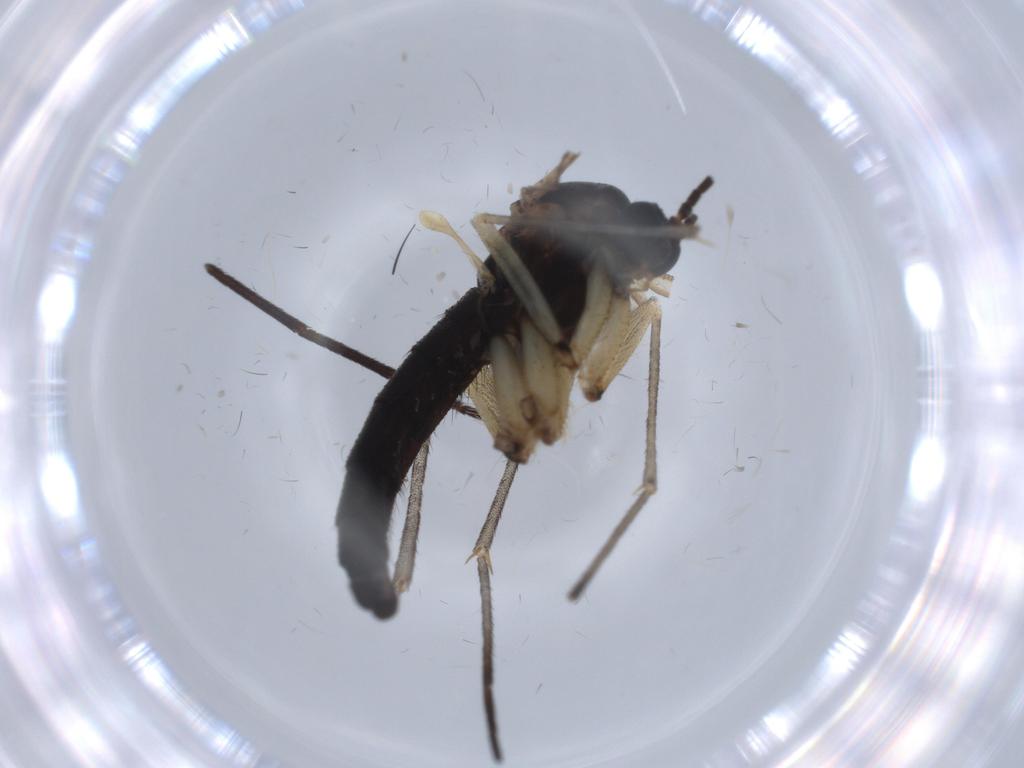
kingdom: Animalia
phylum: Arthropoda
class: Insecta
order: Diptera
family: Sciaridae
